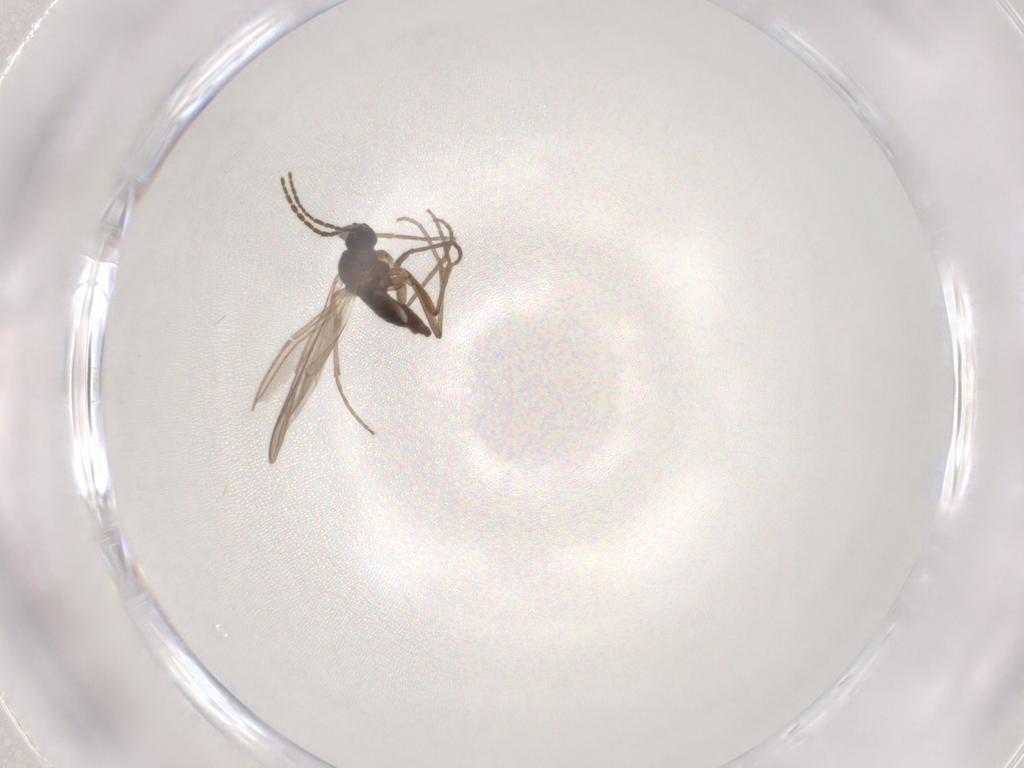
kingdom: Animalia
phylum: Arthropoda
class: Insecta
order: Diptera
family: Sciaridae
